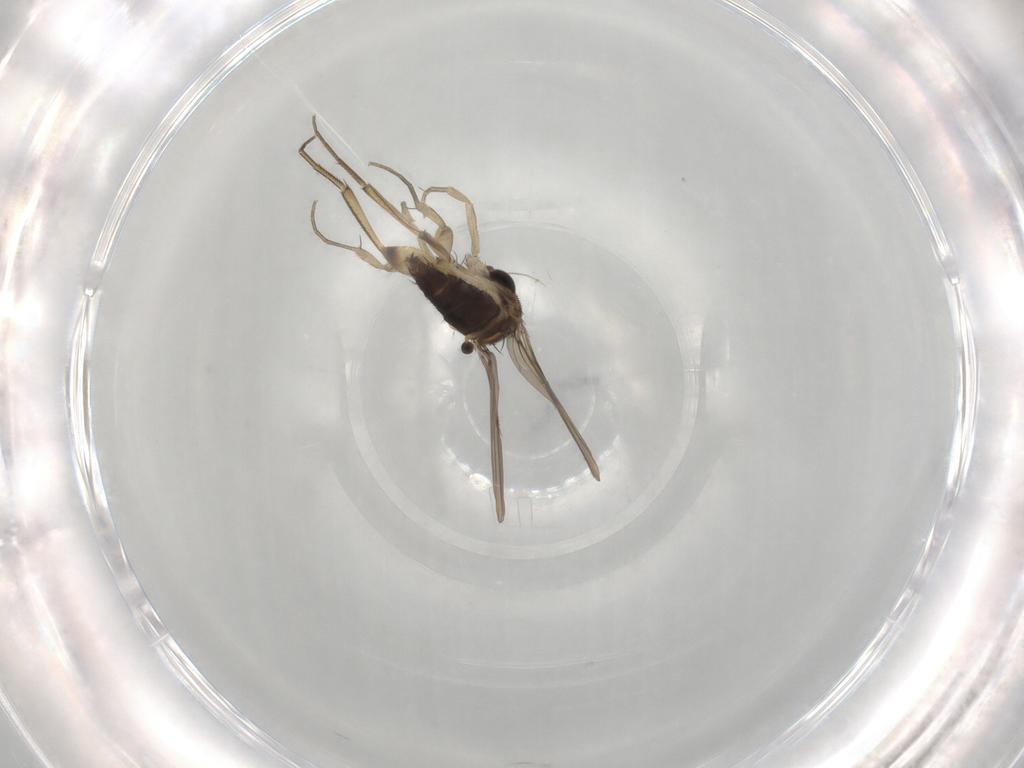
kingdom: Animalia
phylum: Arthropoda
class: Insecta
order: Diptera
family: Phoridae
